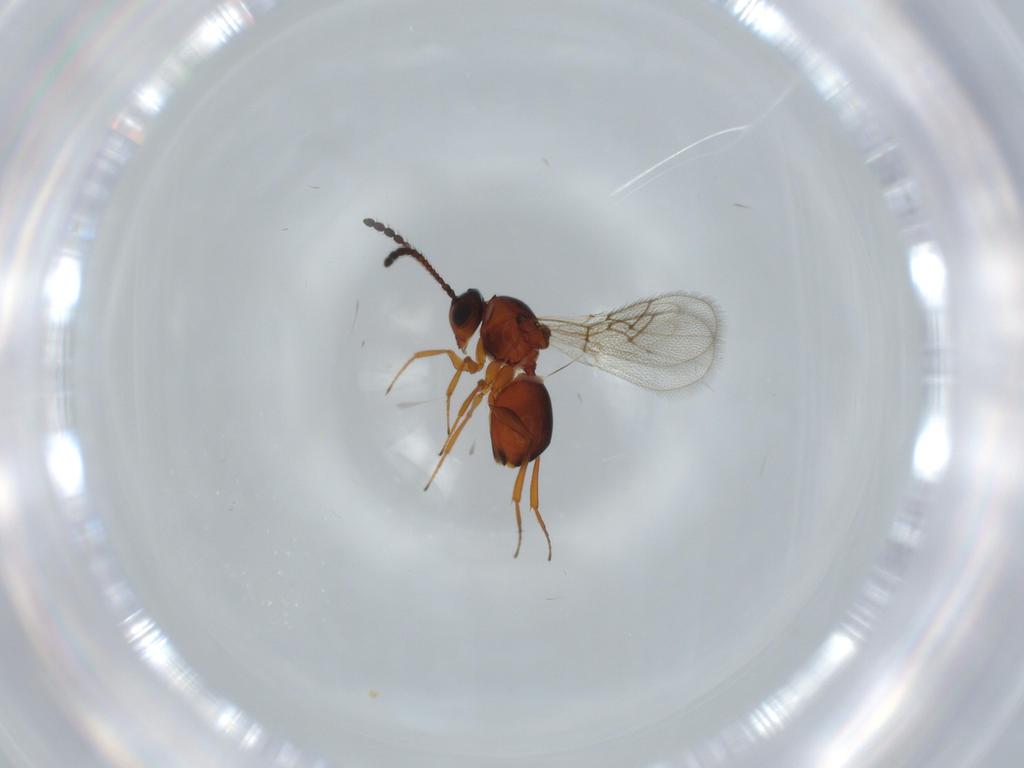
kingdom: Animalia
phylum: Arthropoda
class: Insecta
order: Hymenoptera
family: Figitidae
